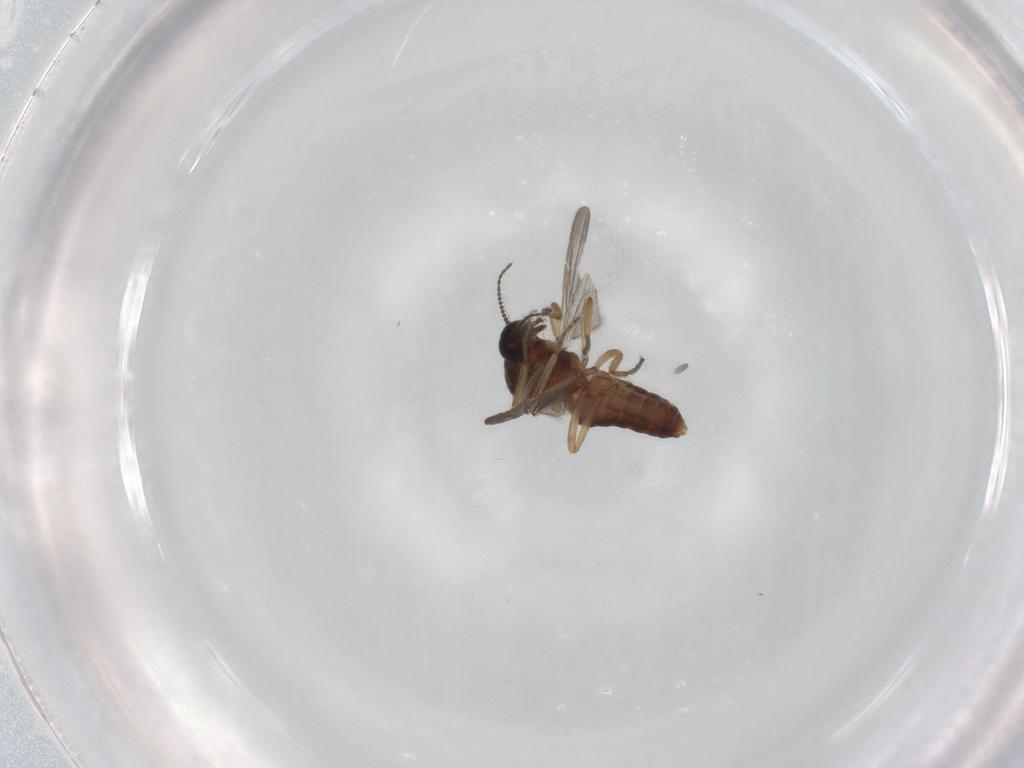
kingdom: Animalia
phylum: Arthropoda
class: Insecta
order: Diptera
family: Ceratopogonidae
